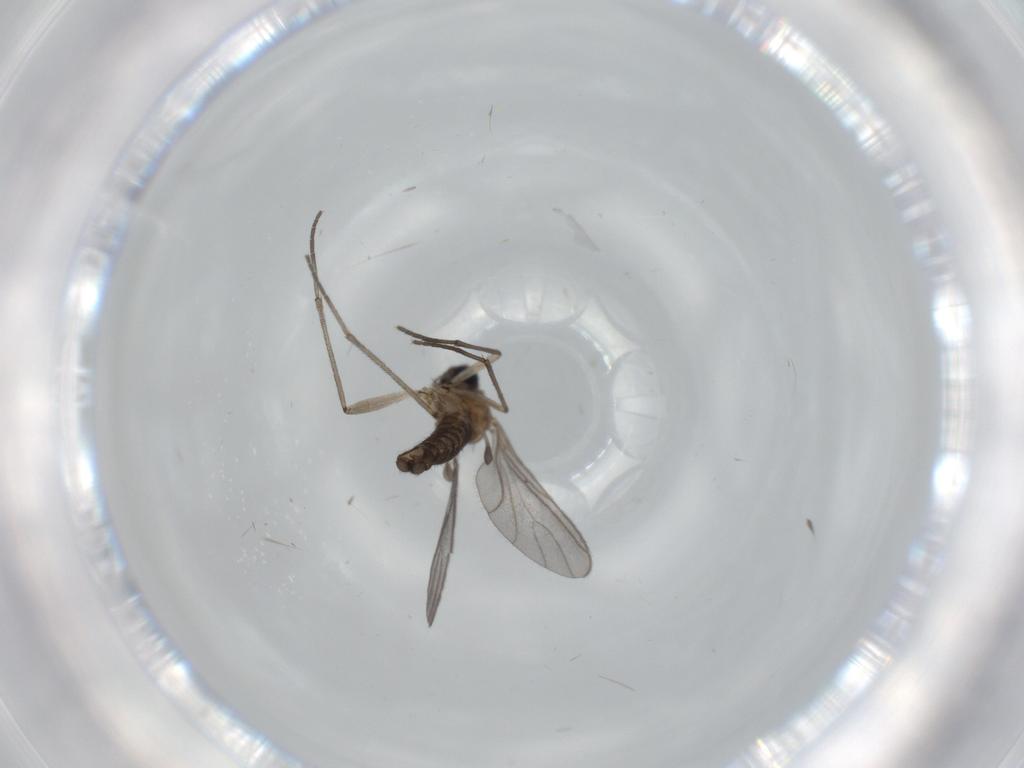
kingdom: Animalia
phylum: Arthropoda
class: Insecta
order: Diptera
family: Sciaridae
